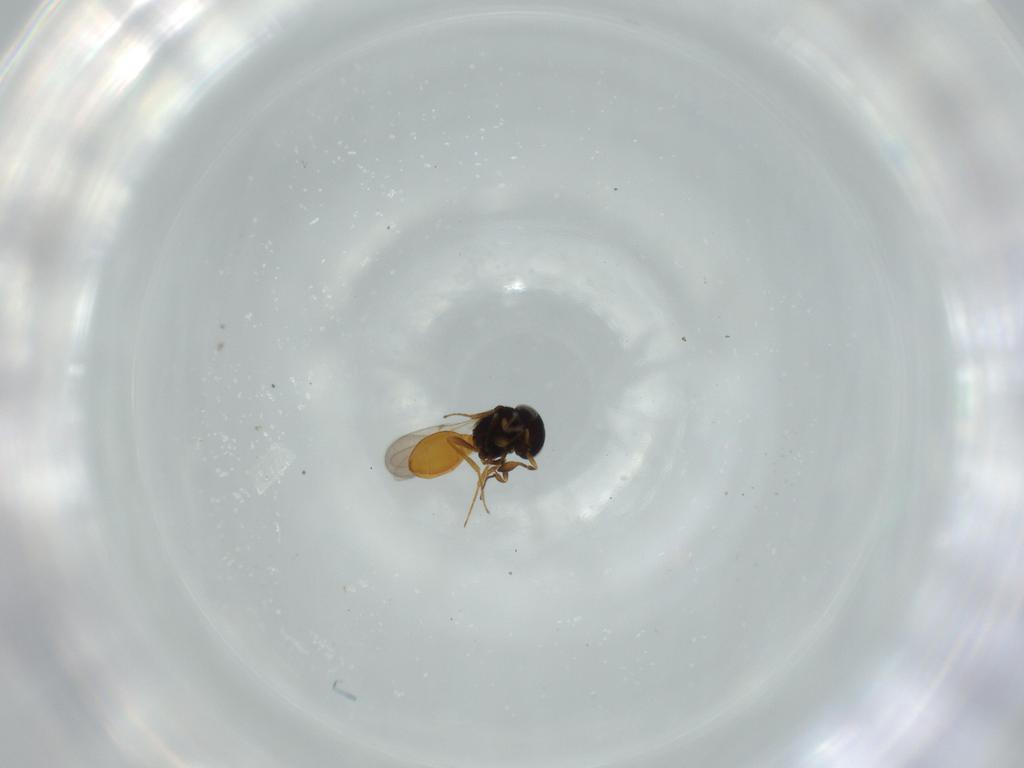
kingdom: Animalia
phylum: Arthropoda
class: Insecta
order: Hymenoptera
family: Scelionidae
